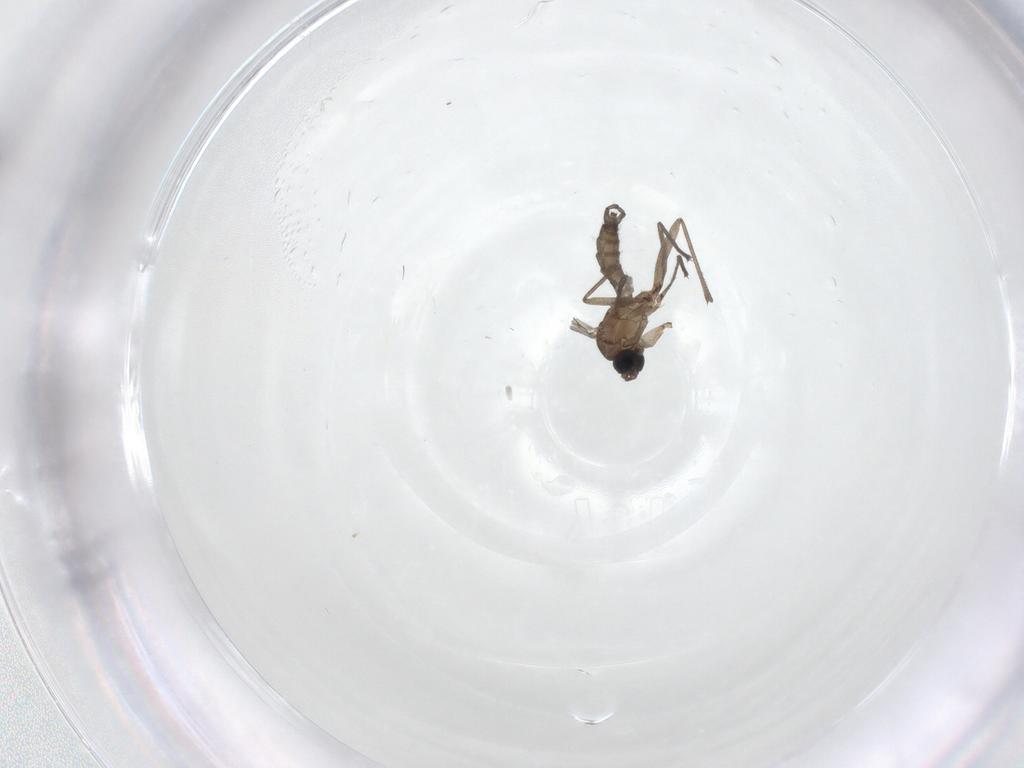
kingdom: Animalia
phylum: Arthropoda
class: Insecta
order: Diptera
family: Sciaridae
